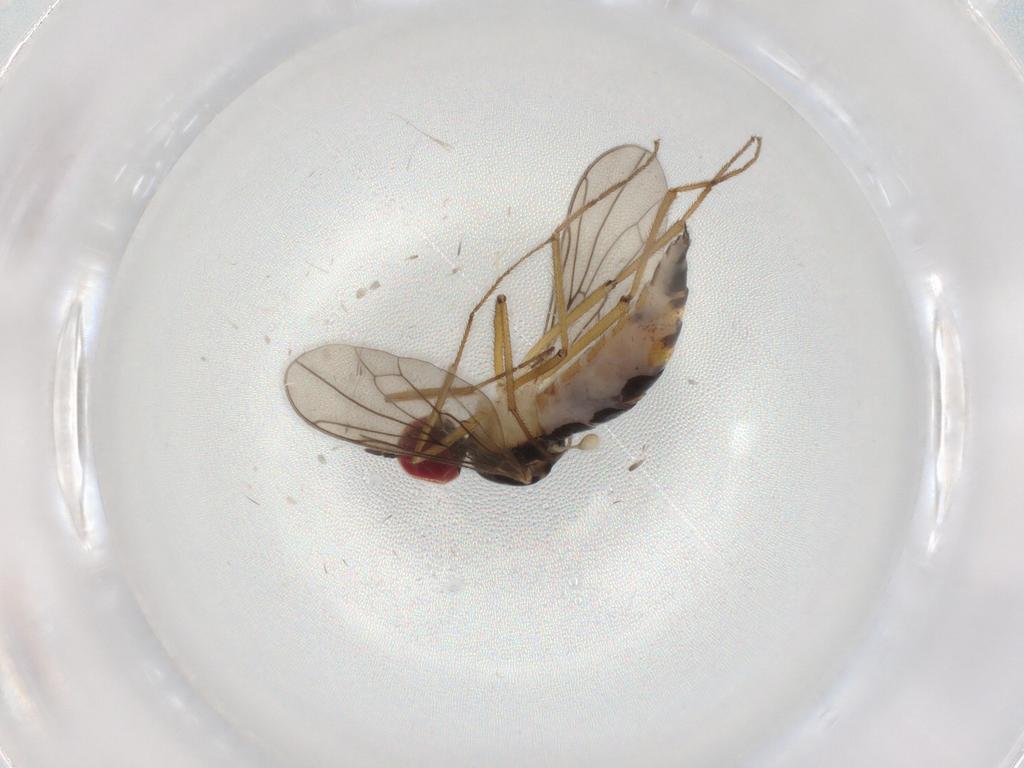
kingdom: Animalia
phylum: Arthropoda
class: Insecta
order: Diptera
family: Hybotidae
